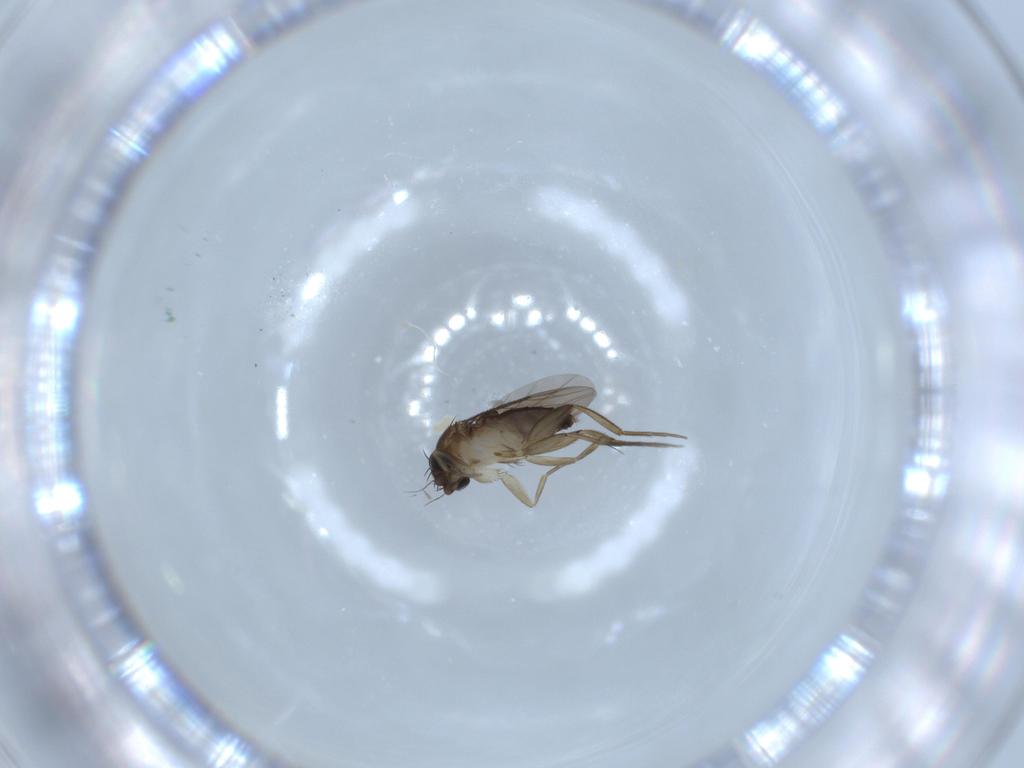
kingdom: Animalia
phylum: Arthropoda
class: Insecta
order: Diptera
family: Phoridae
